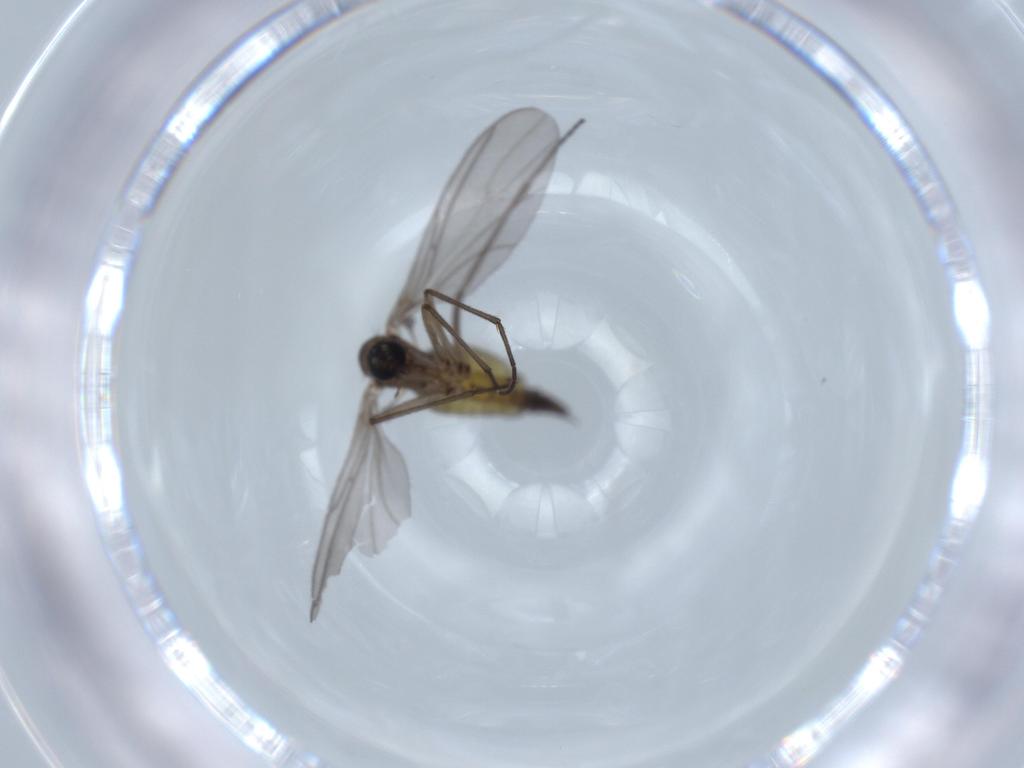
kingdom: Animalia
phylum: Arthropoda
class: Insecta
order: Diptera
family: Sciaridae
